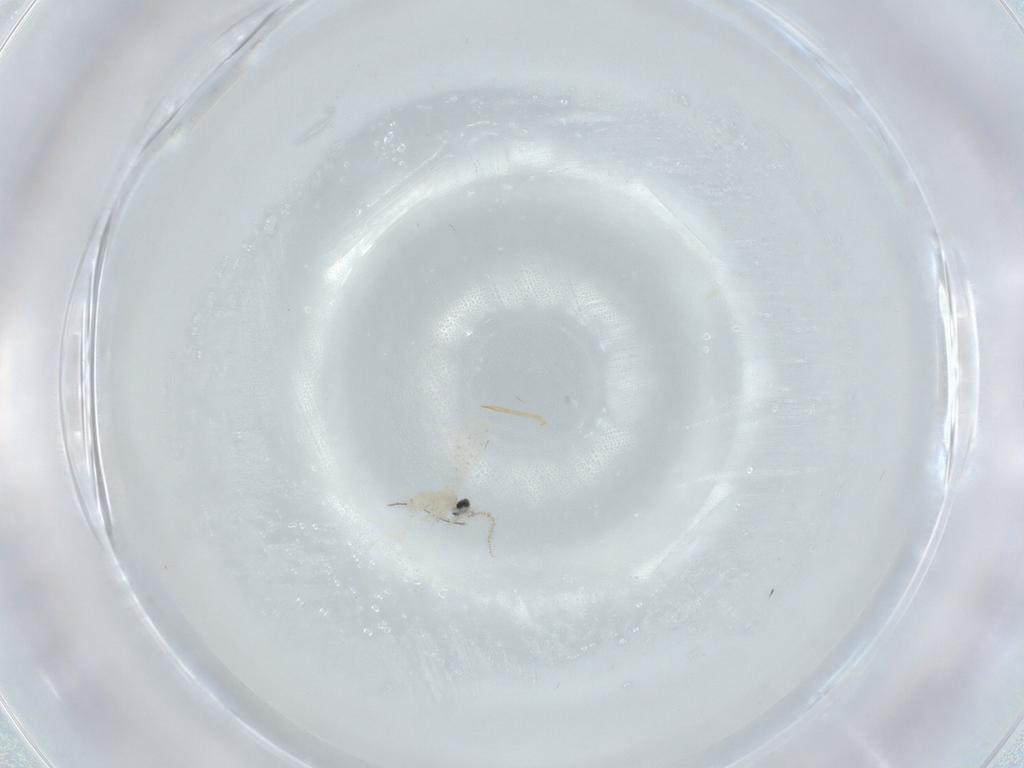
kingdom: Animalia
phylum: Arthropoda
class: Insecta
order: Diptera
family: Cecidomyiidae
